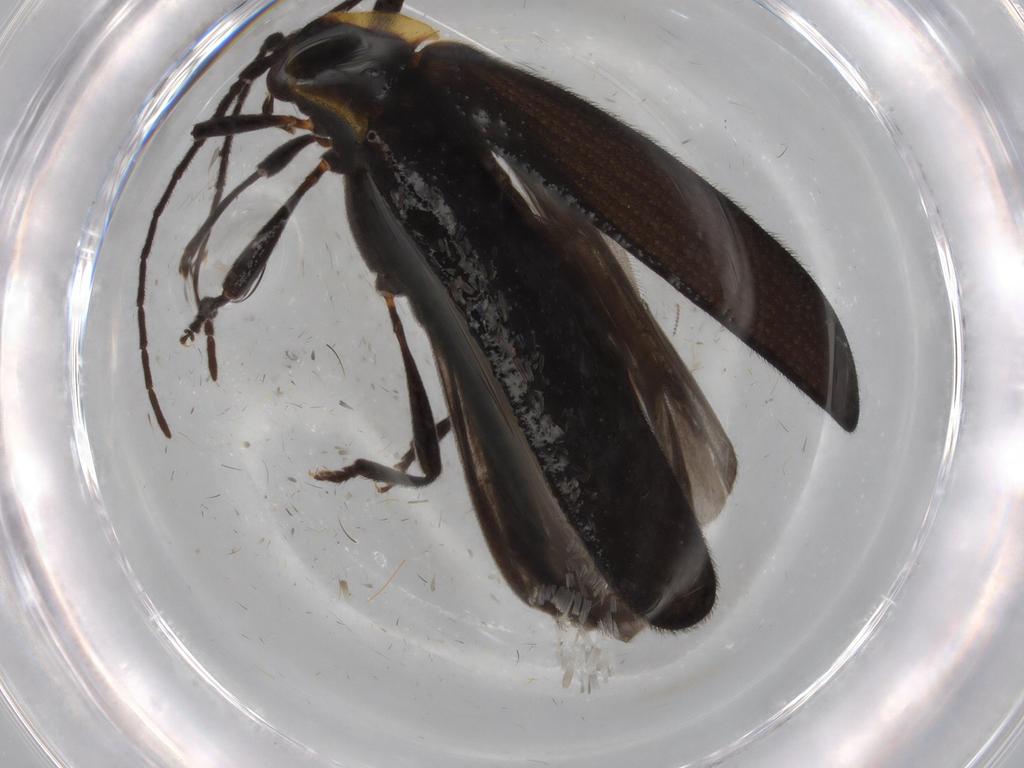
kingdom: Animalia
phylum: Arthropoda
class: Insecta
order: Coleoptera
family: Lycidae
